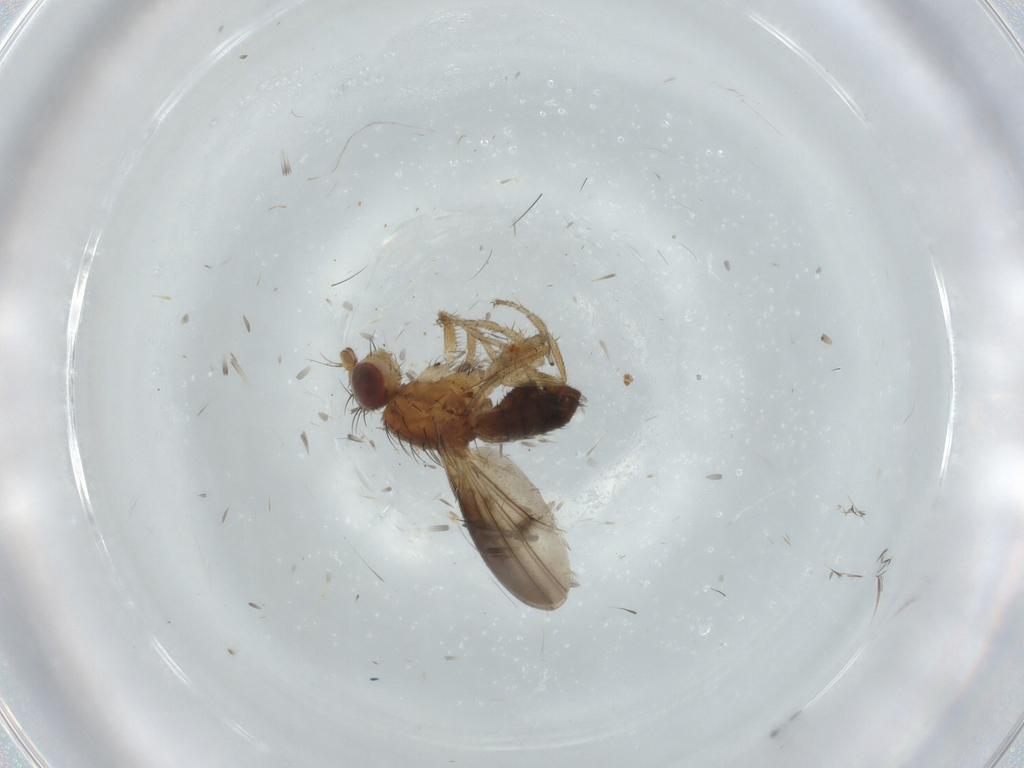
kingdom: Animalia
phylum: Arthropoda
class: Insecta
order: Diptera
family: Heleomyzidae
